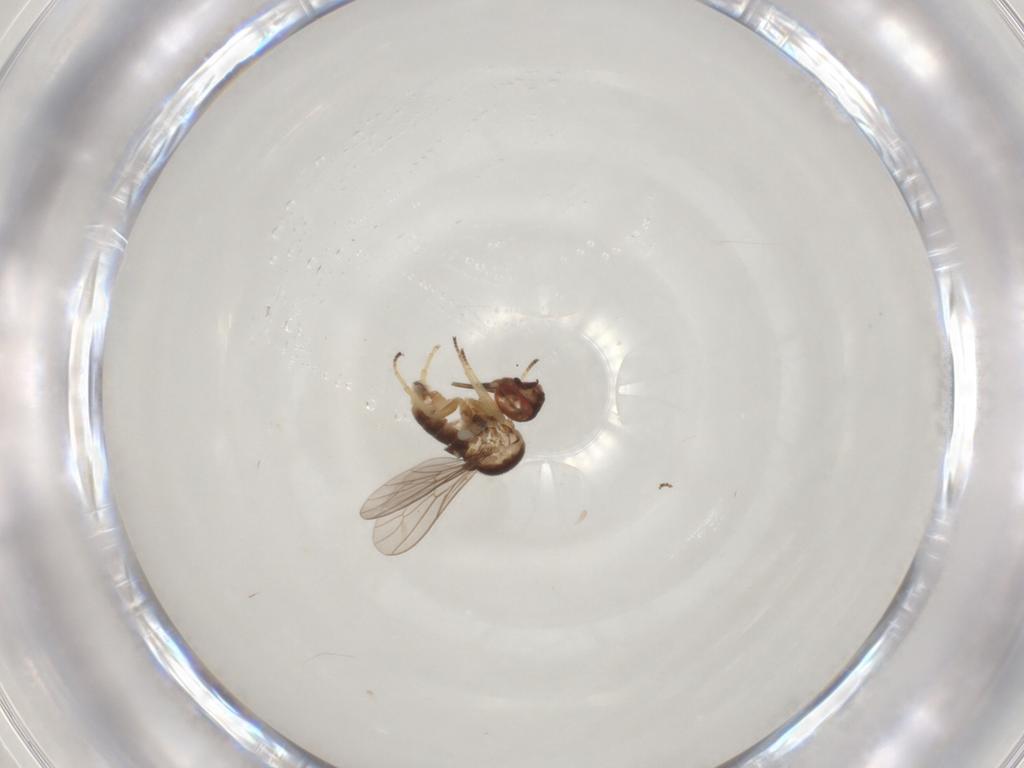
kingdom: Animalia
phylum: Arthropoda
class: Insecta
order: Diptera
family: Bombyliidae
